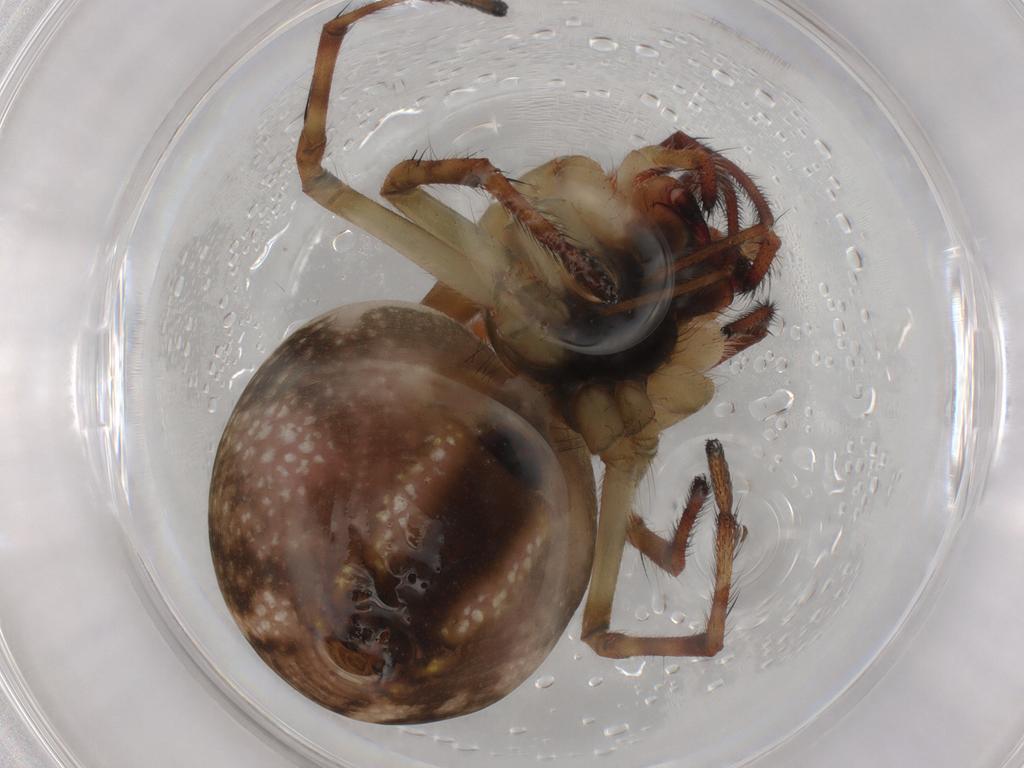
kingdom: Animalia
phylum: Arthropoda
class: Arachnida
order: Araneae
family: Tetragnathidae
